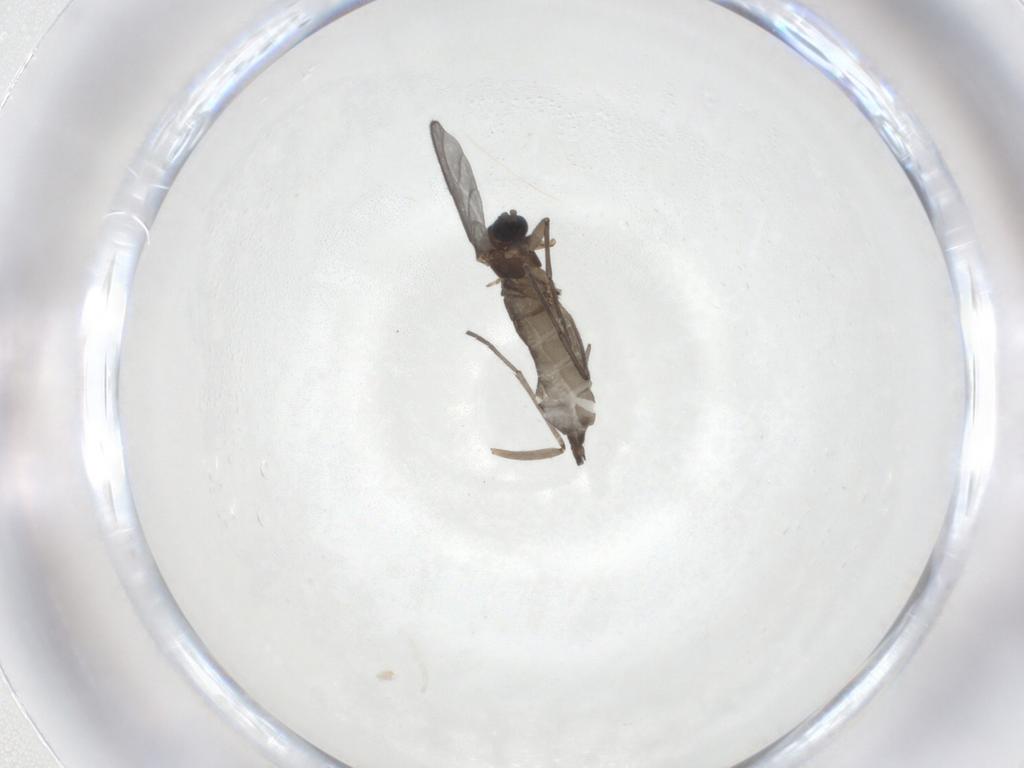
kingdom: Animalia
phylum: Arthropoda
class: Insecta
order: Diptera
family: Sciaridae
